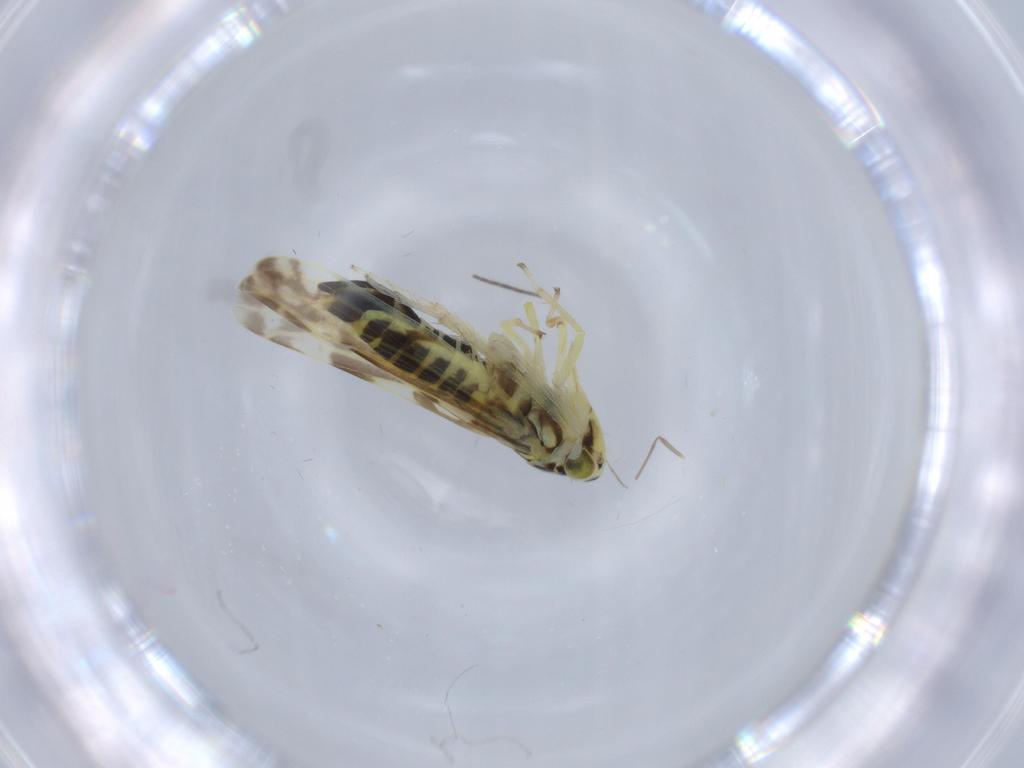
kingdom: Animalia
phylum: Arthropoda
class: Insecta
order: Hemiptera
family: Cicadellidae
